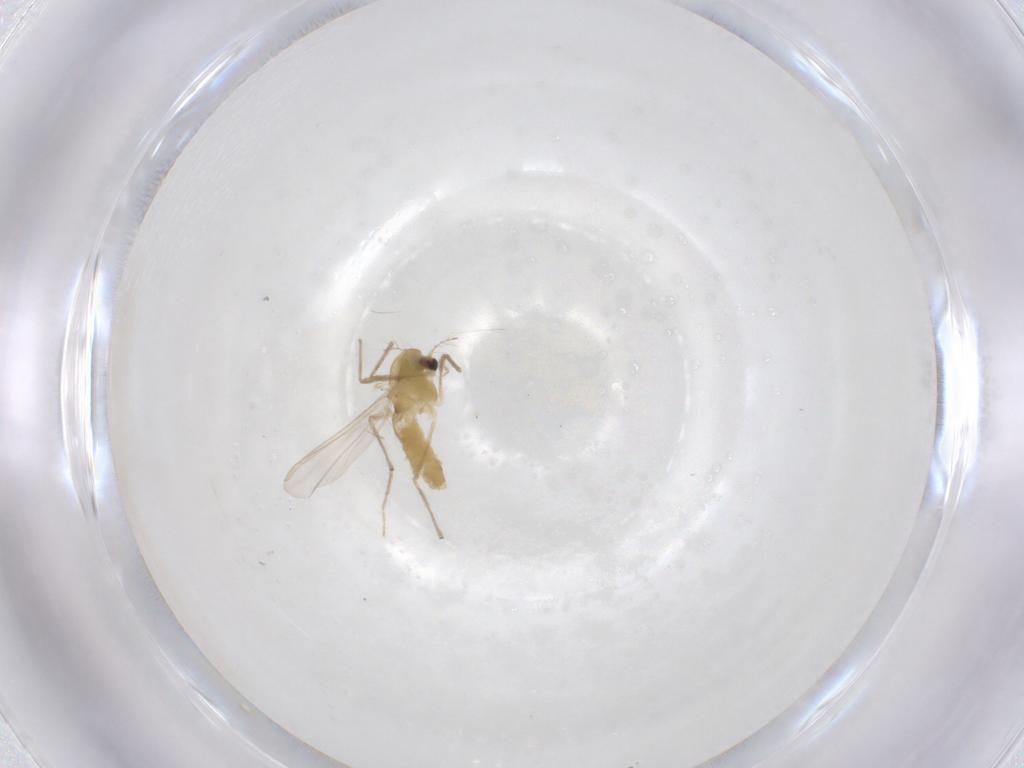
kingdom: Animalia
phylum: Arthropoda
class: Insecta
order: Diptera
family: Chironomidae
